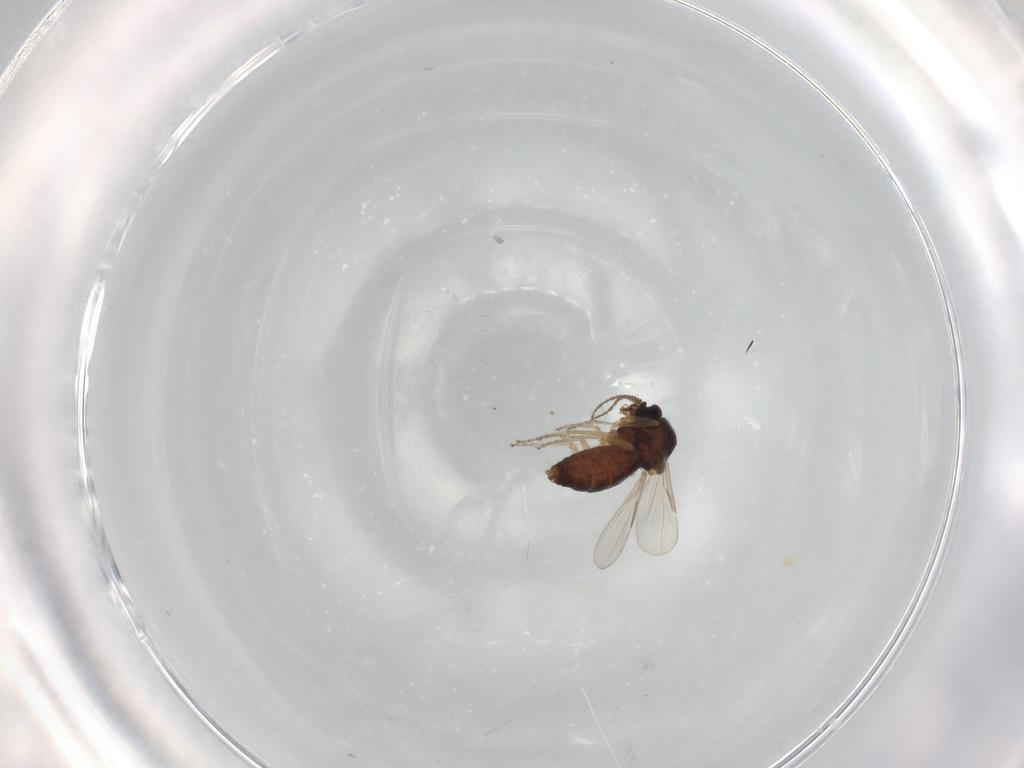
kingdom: Animalia
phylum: Arthropoda
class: Insecta
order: Diptera
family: Ceratopogonidae
